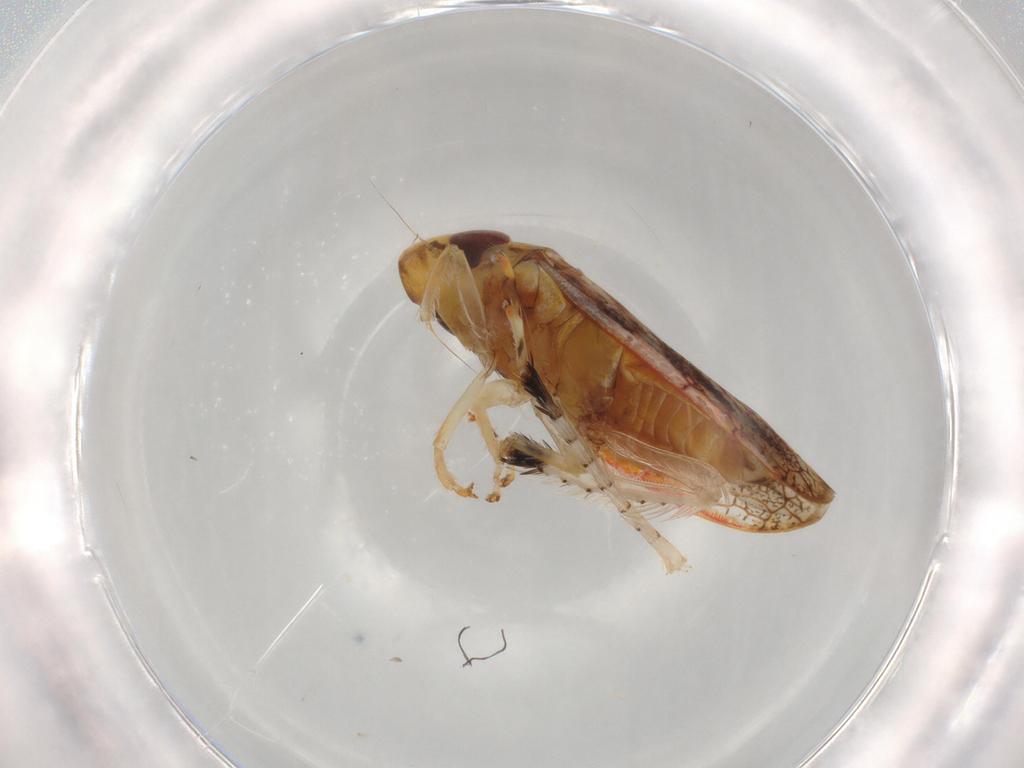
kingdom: Animalia
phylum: Arthropoda
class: Insecta
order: Hemiptera
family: Cicadellidae
